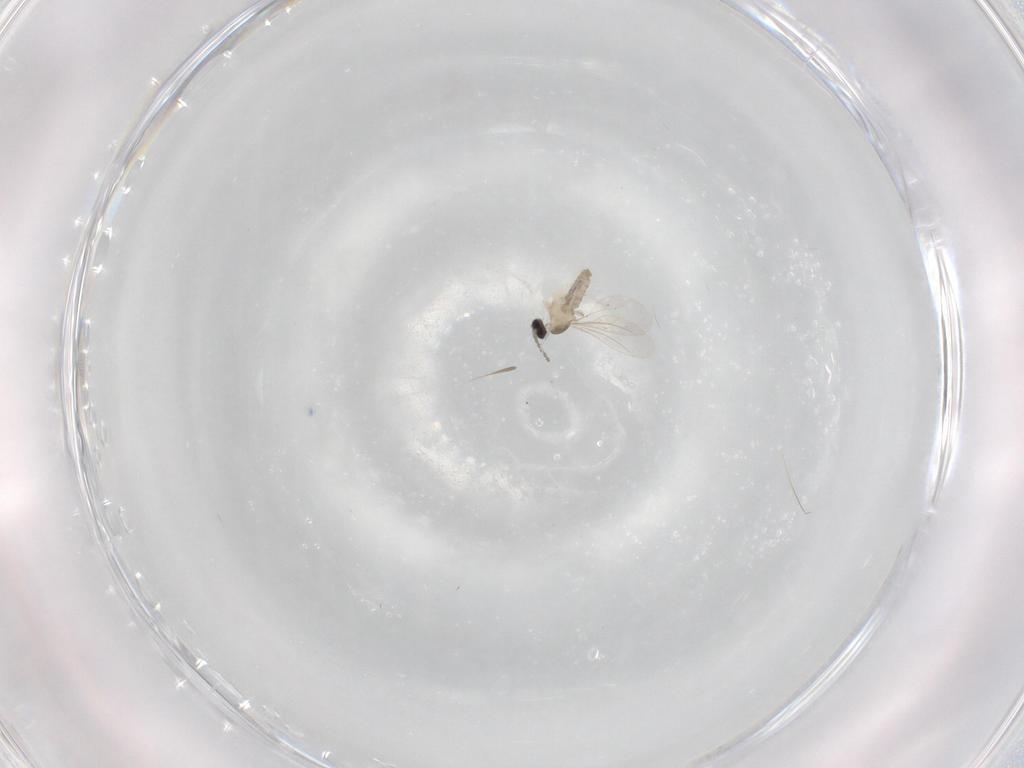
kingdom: Animalia
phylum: Arthropoda
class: Insecta
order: Diptera
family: Cecidomyiidae
